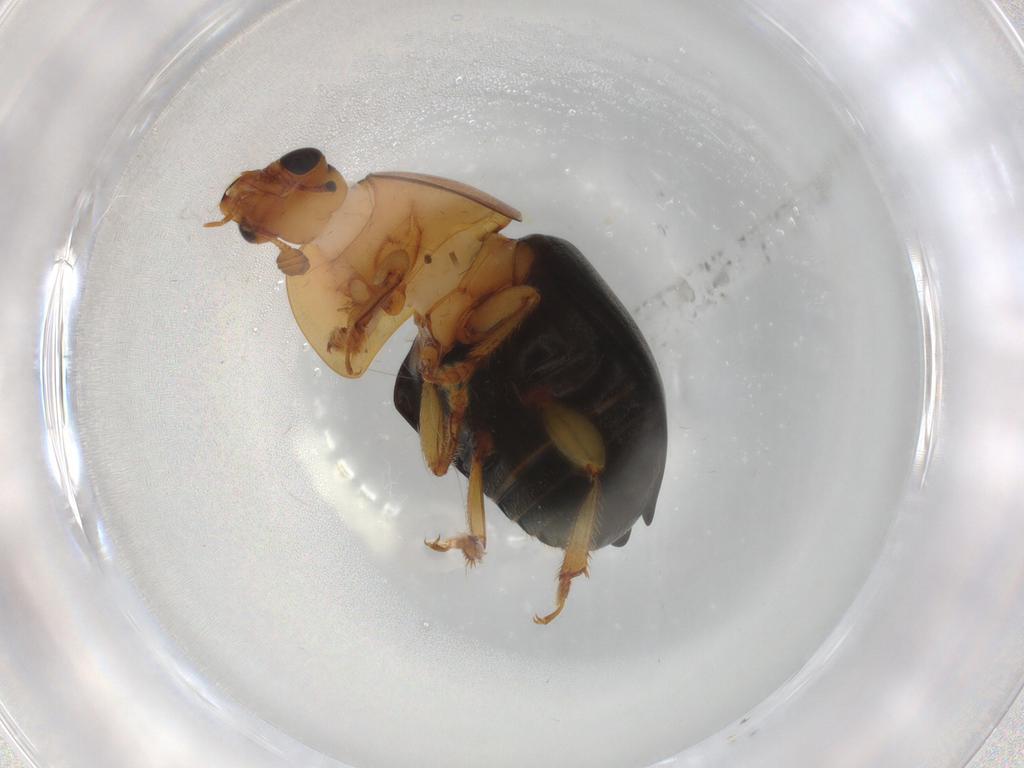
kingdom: Animalia
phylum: Arthropoda
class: Insecta
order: Coleoptera
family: Nitidulidae
